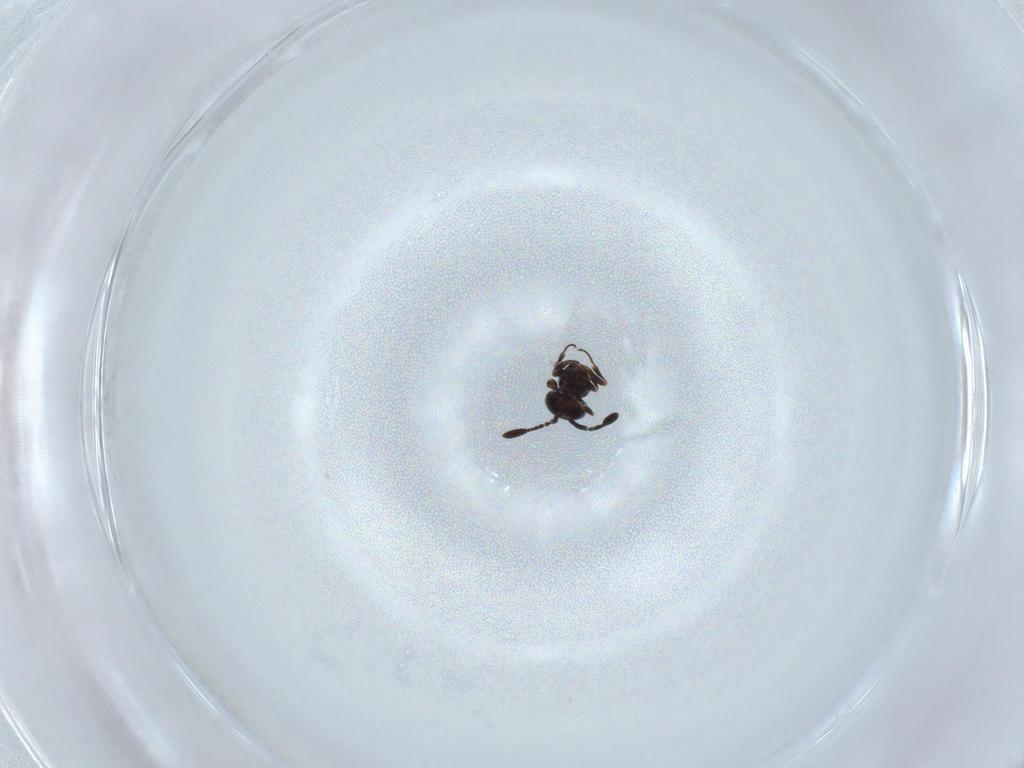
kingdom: Animalia
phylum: Arthropoda
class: Insecta
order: Hymenoptera
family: Scelionidae
